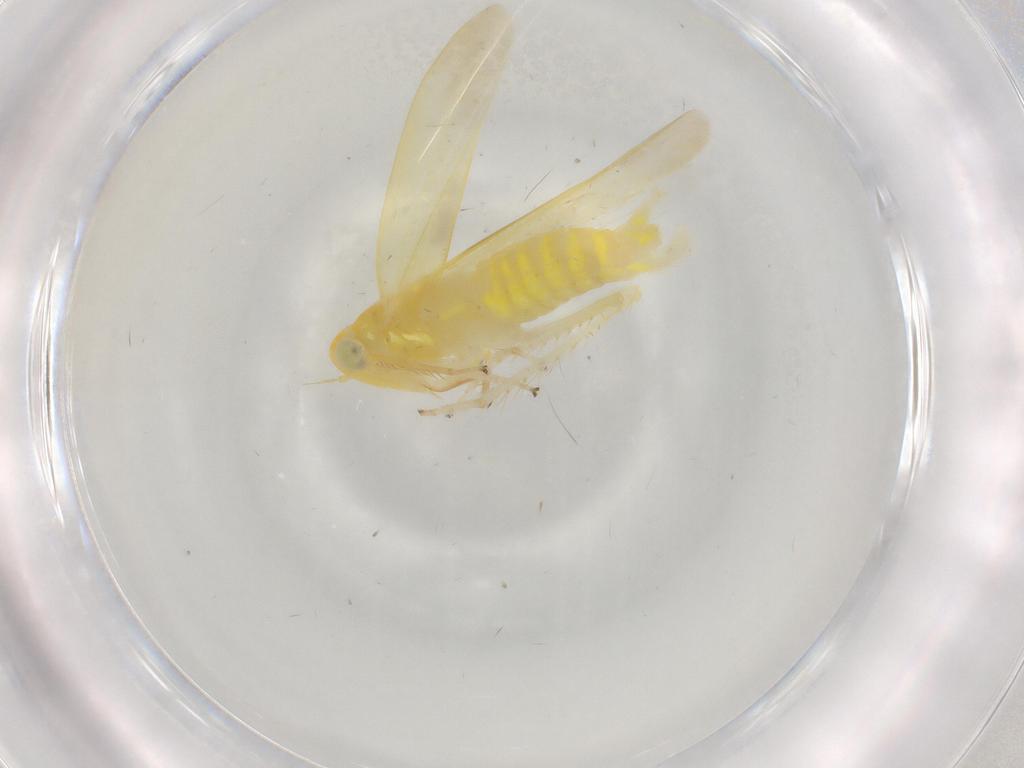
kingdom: Animalia
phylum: Arthropoda
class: Insecta
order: Hemiptera
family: Cicadellidae
